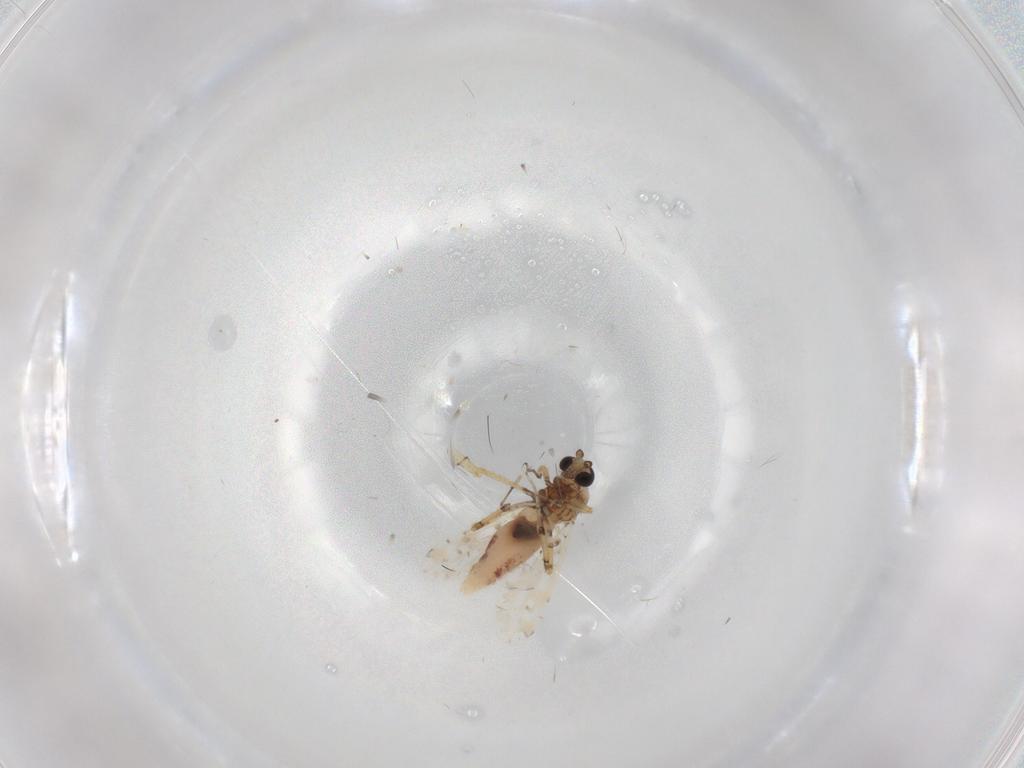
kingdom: Animalia
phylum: Arthropoda
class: Insecta
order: Diptera
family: Ceratopogonidae
